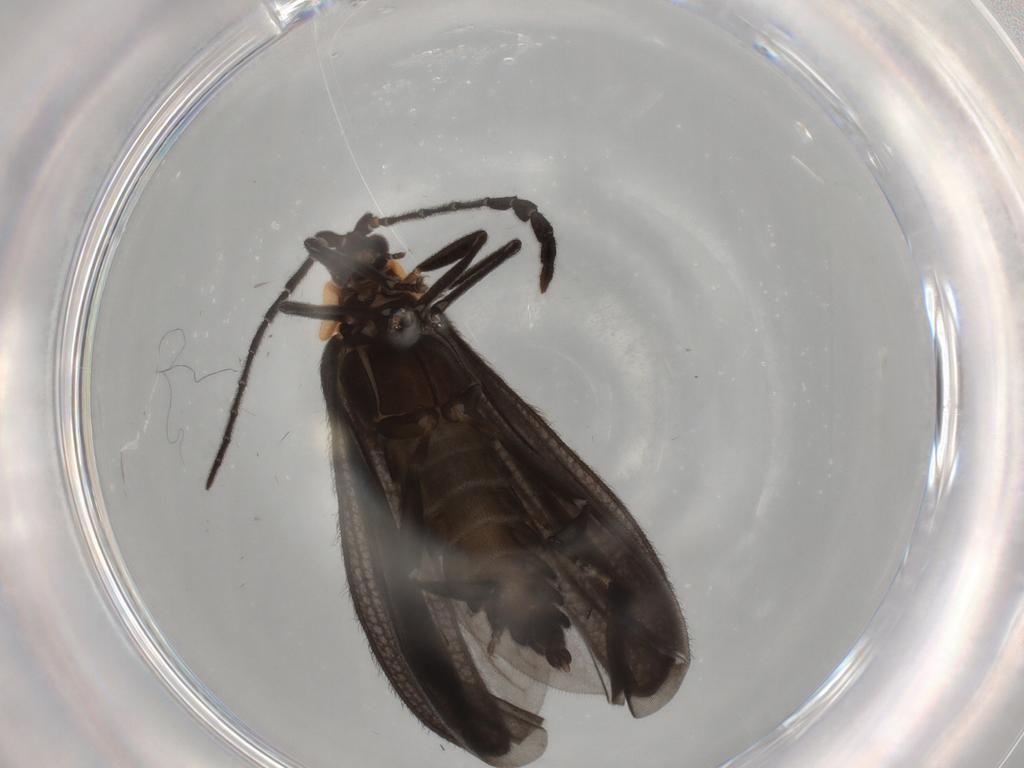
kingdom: Animalia
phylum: Arthropoda
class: Insecta
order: Coleoptera
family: Lycidae
